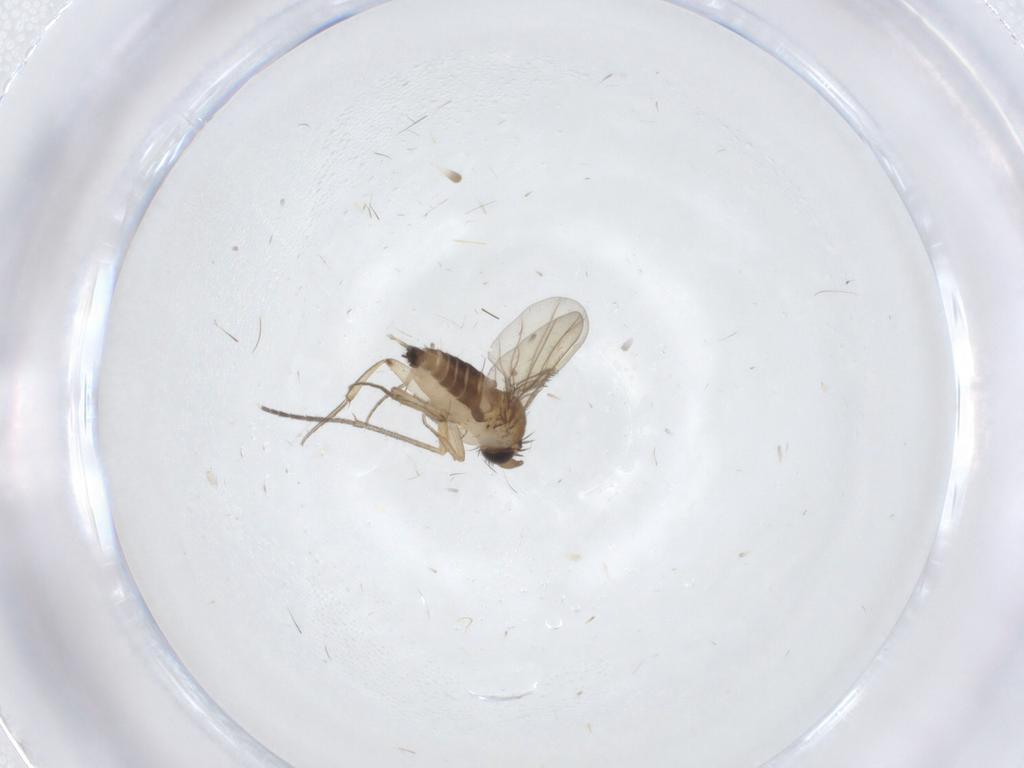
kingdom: Animalia
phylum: Arthropoda
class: Insecta
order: Diptera
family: Sciaridae
